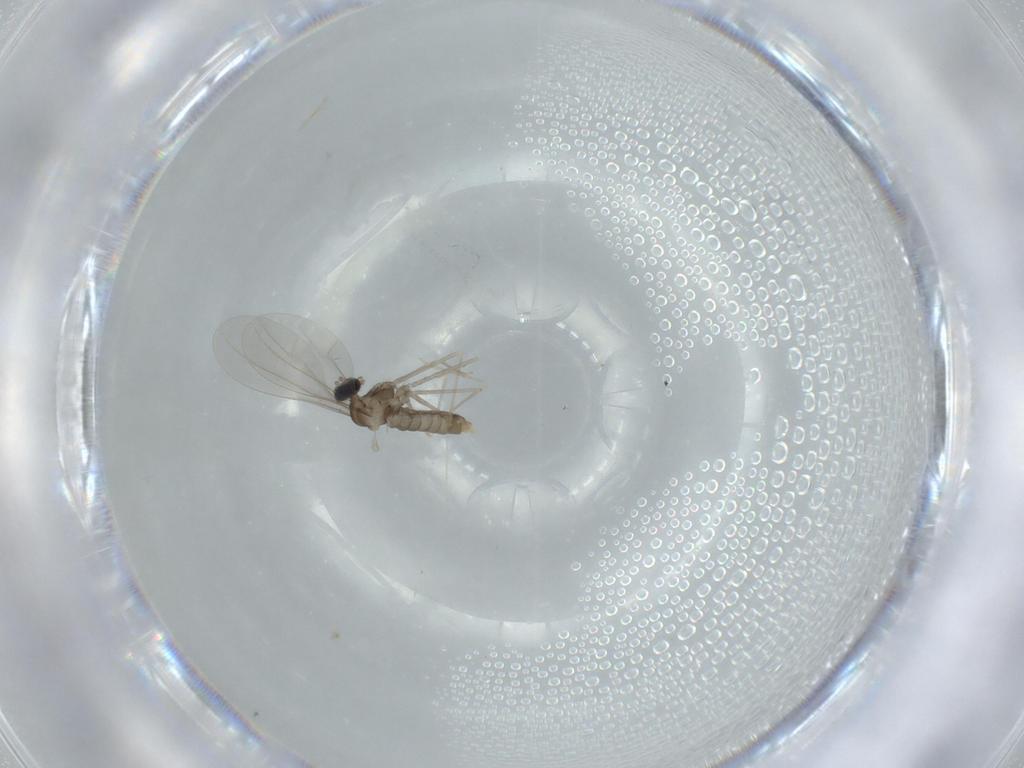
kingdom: Animalia
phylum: Arthropoda
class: Insecta
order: Diptera
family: Cecidomyiidae
